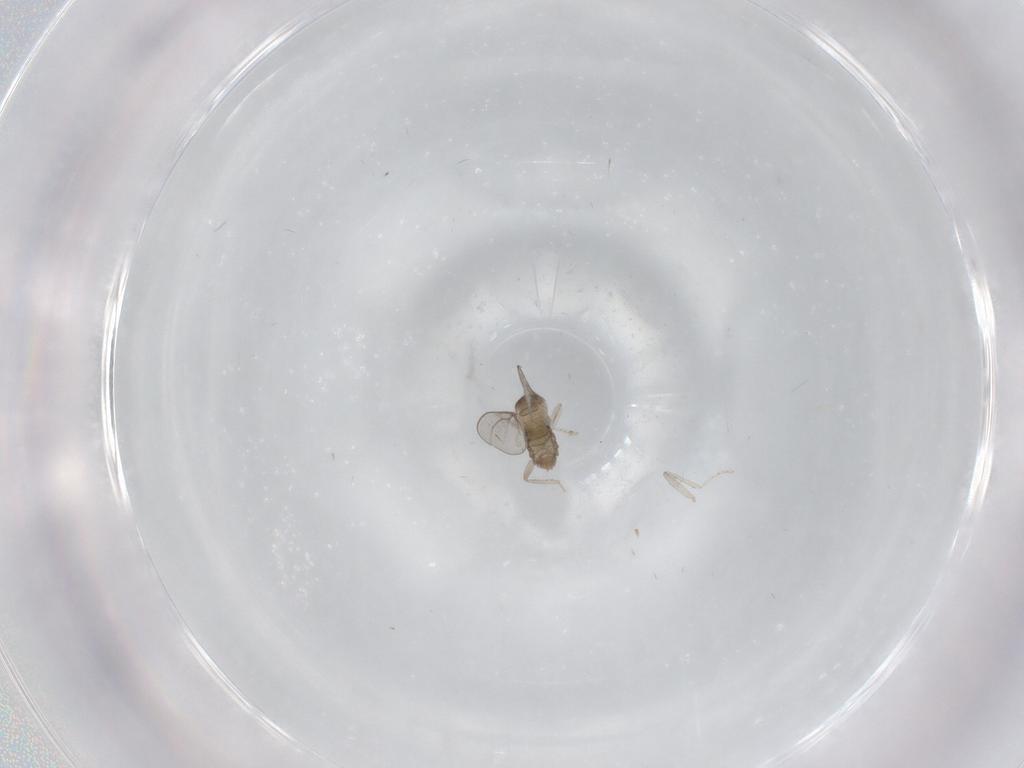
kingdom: Animalia
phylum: Arthropoda
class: Insecta
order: Diptera
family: Cecidomyiidae
